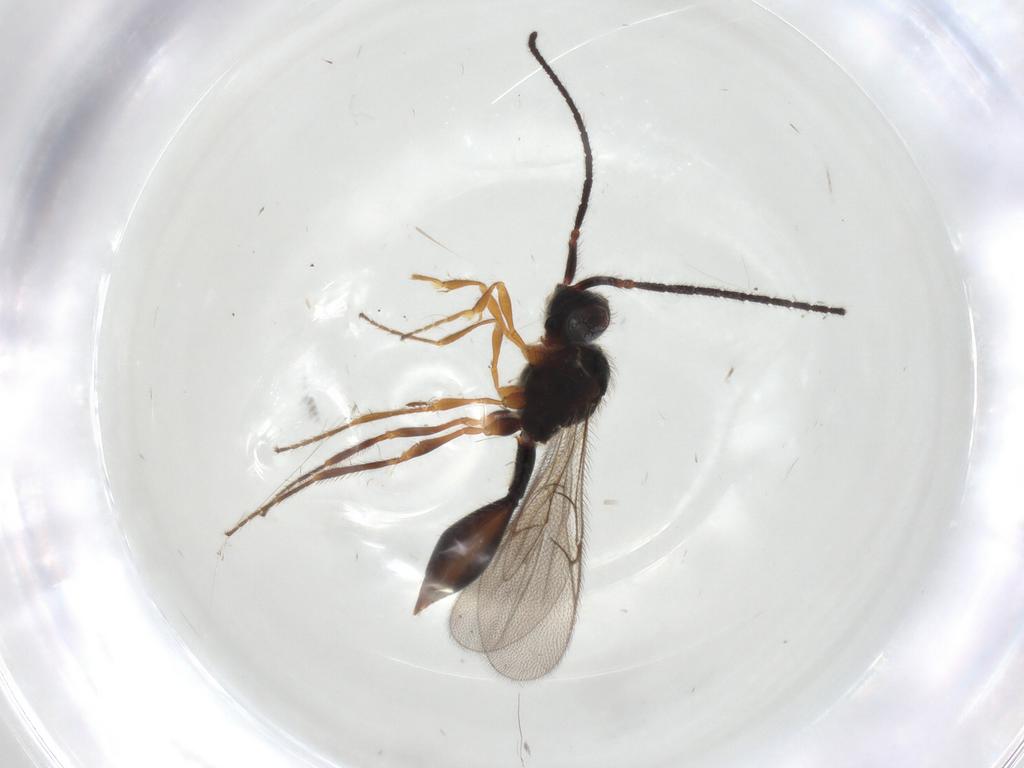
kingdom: Animalia
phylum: Arthropoda
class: Insecta
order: Hymenoptera
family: Diapriidae
